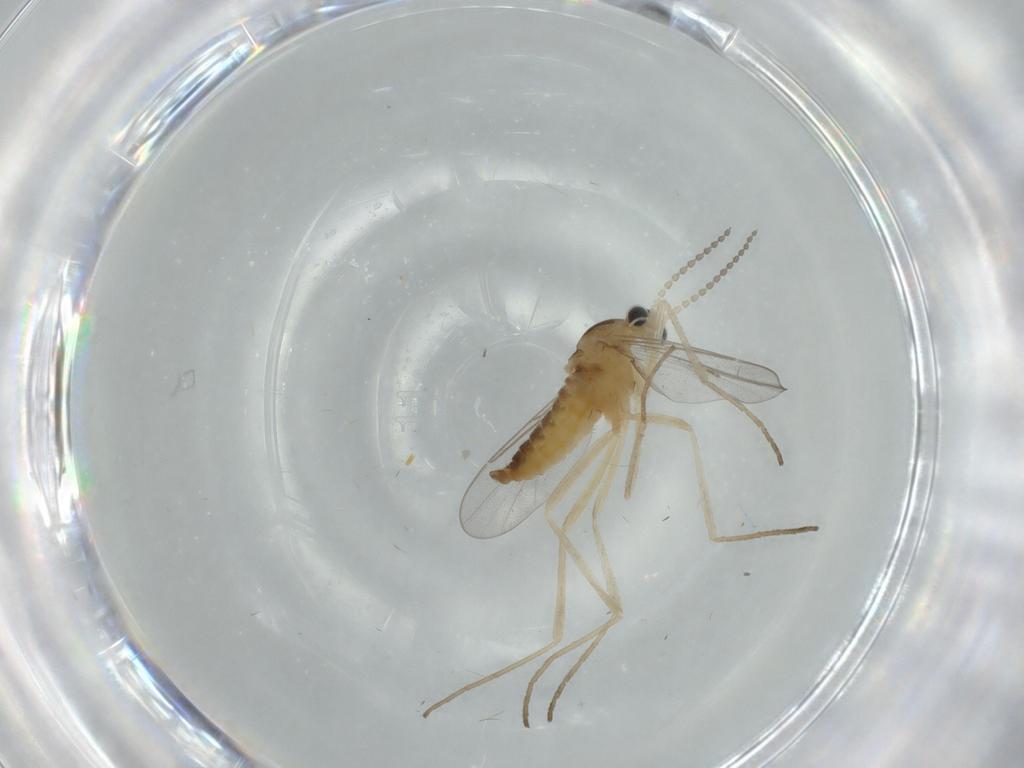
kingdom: Animalia
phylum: Arthropoda
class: Insecta
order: Diptera
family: Cecidomyiidae
